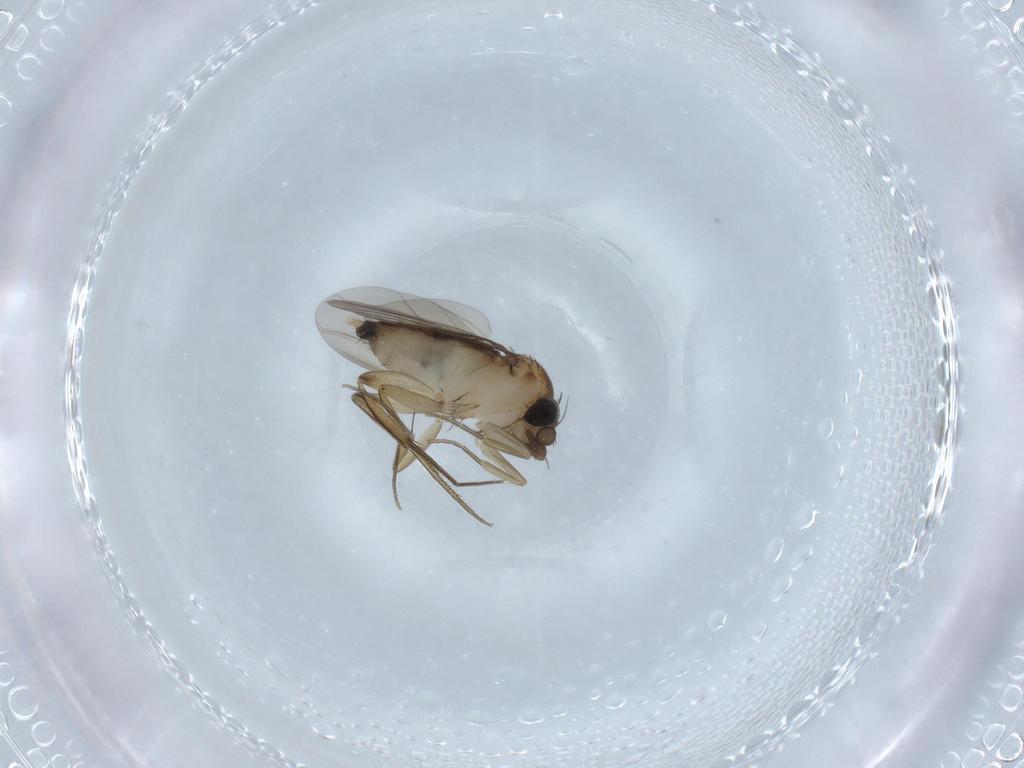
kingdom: Animalia
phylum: Arthropoda
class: Insecta
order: Diptera
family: Phoridae
